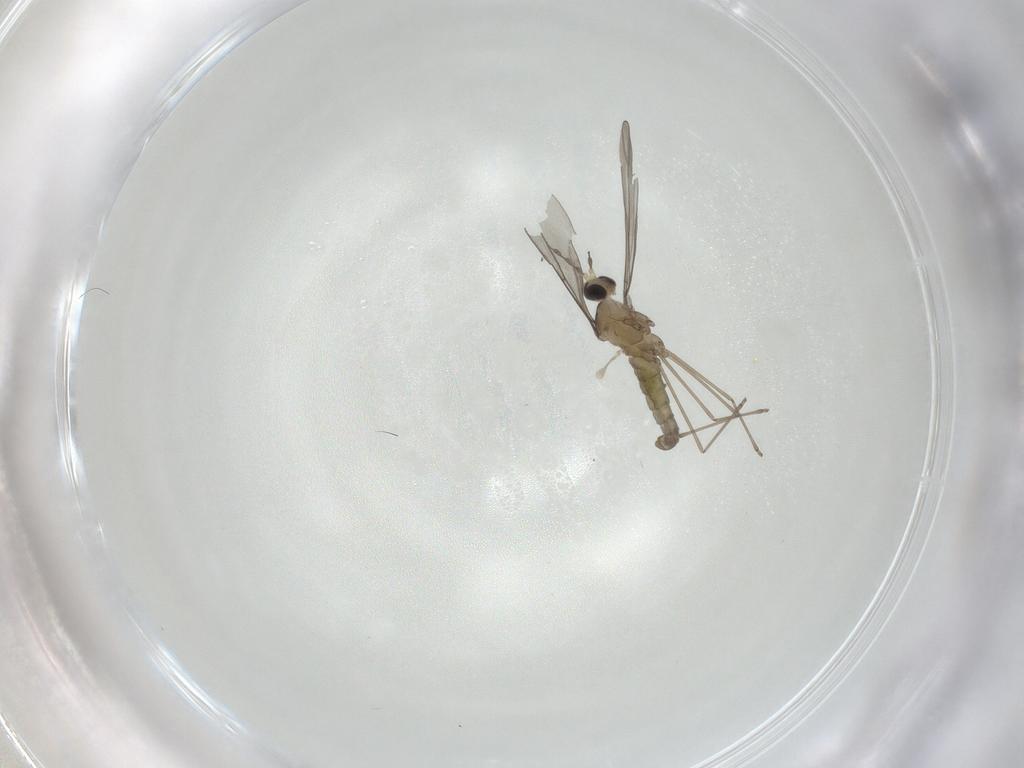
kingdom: Animalia
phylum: Arthropoda
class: Insecta
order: Diptera
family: Cecidomyiidae
